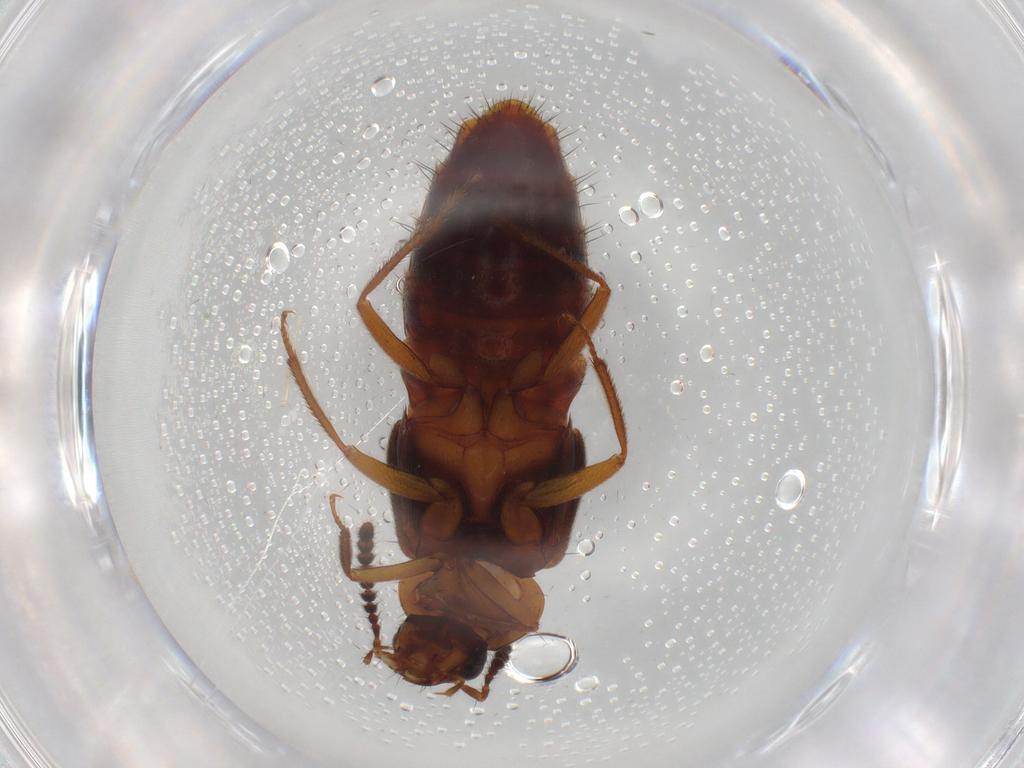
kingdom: Animalia
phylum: Arthropoda
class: Insecta
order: Coleoptera
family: Staphylinidae
